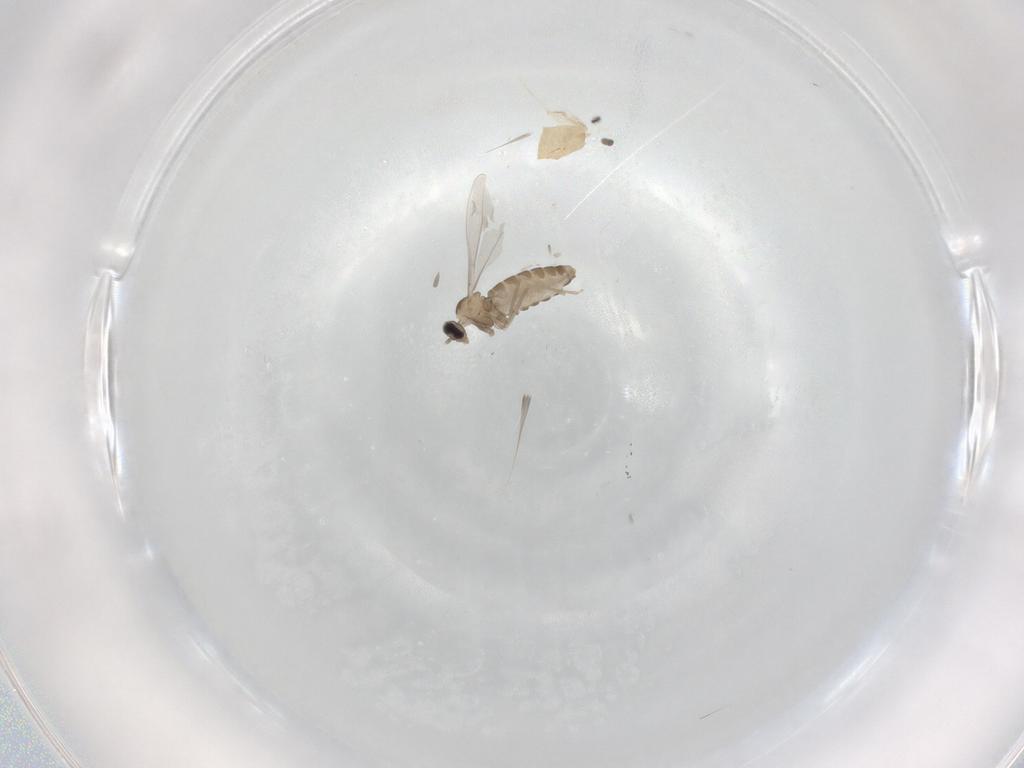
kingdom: Animalia
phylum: Arthropoda
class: Insecta
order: Diptera
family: Cecidomyiidae
